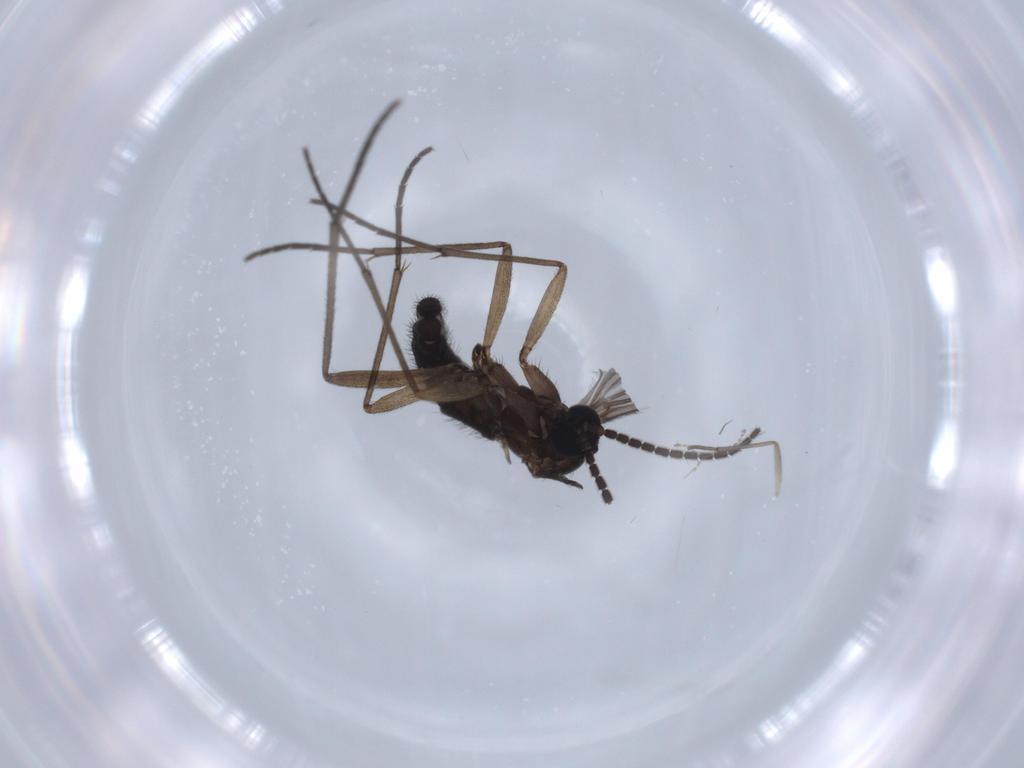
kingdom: Animalia
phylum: Arthropoda
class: Insecta
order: Diptera
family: Sciaridae
